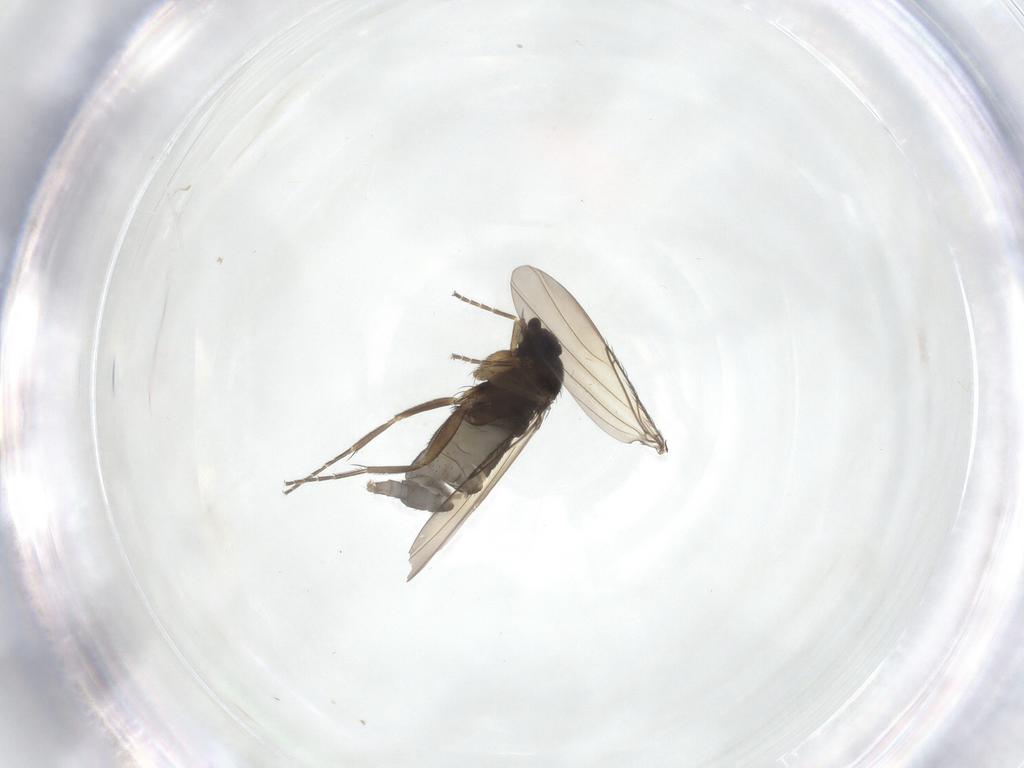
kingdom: Animalia
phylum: Arthropoda
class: Insecta
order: Diptera
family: Phoridae
